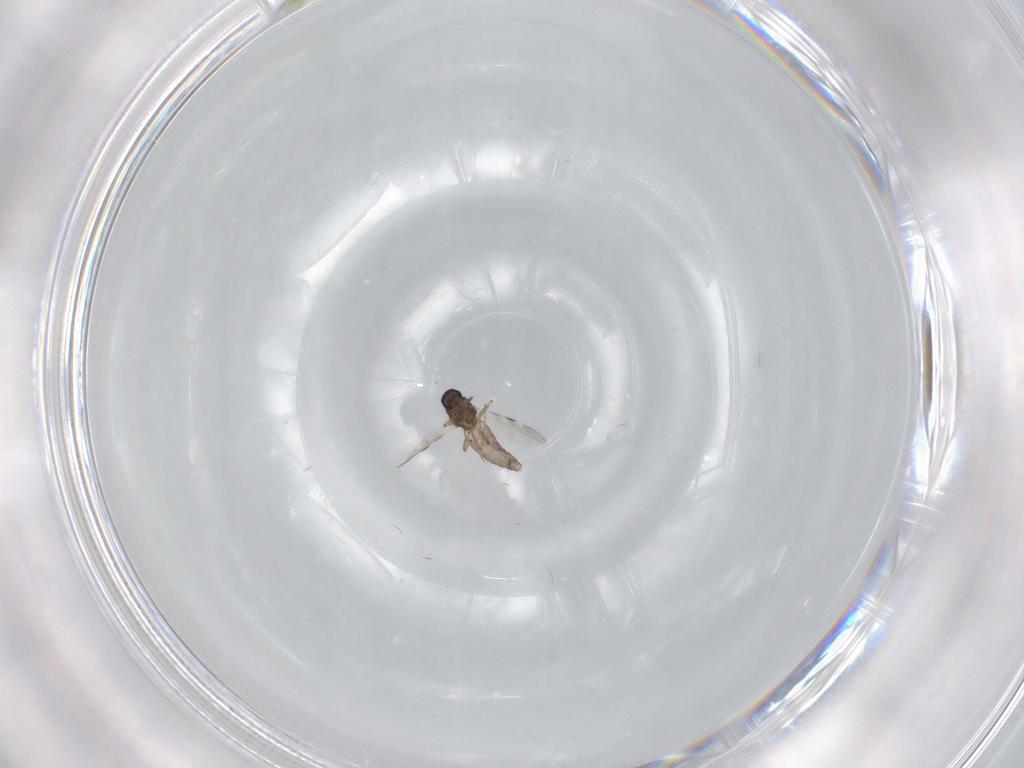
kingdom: Animalia
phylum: Arthropoda
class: Insecta
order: Diptera
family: Cecidomyiidae
